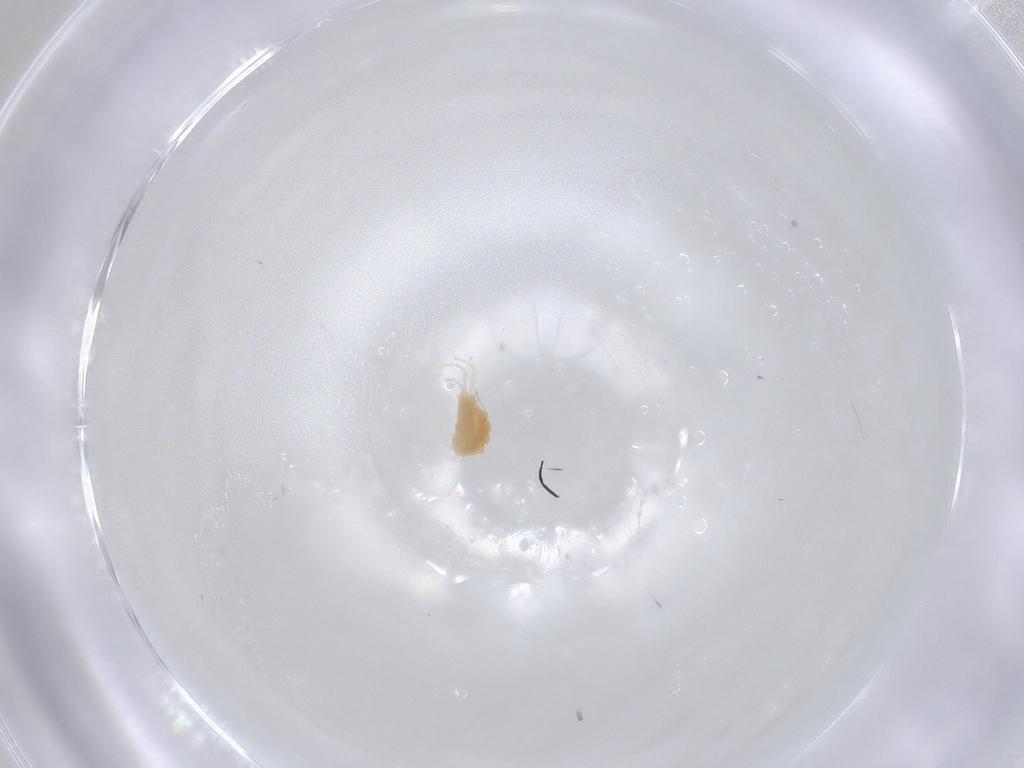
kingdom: Animalia
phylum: Arthropoda
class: Arachnida
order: Trombidiformes
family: Tetranychidae
